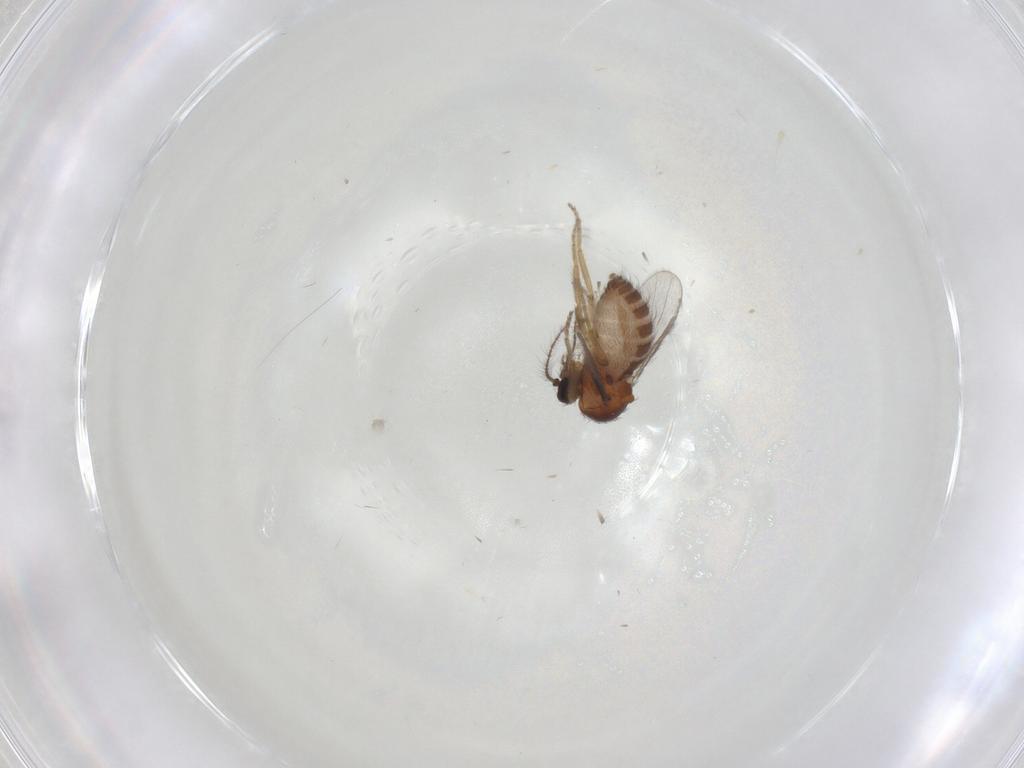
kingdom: Animalia
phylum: Arthropoda
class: Insecta
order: Diptera
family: Ceratopogonidae
